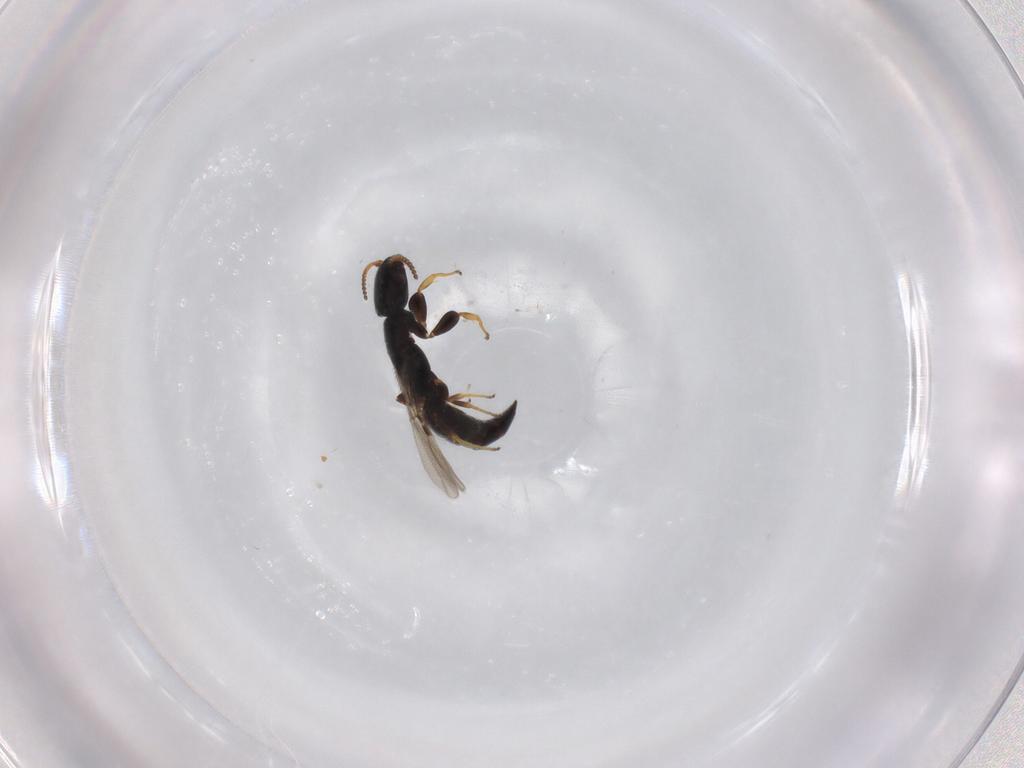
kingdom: Animalia
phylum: Arthropoda
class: Insecta
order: Hymenoptera
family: Bethylidae
